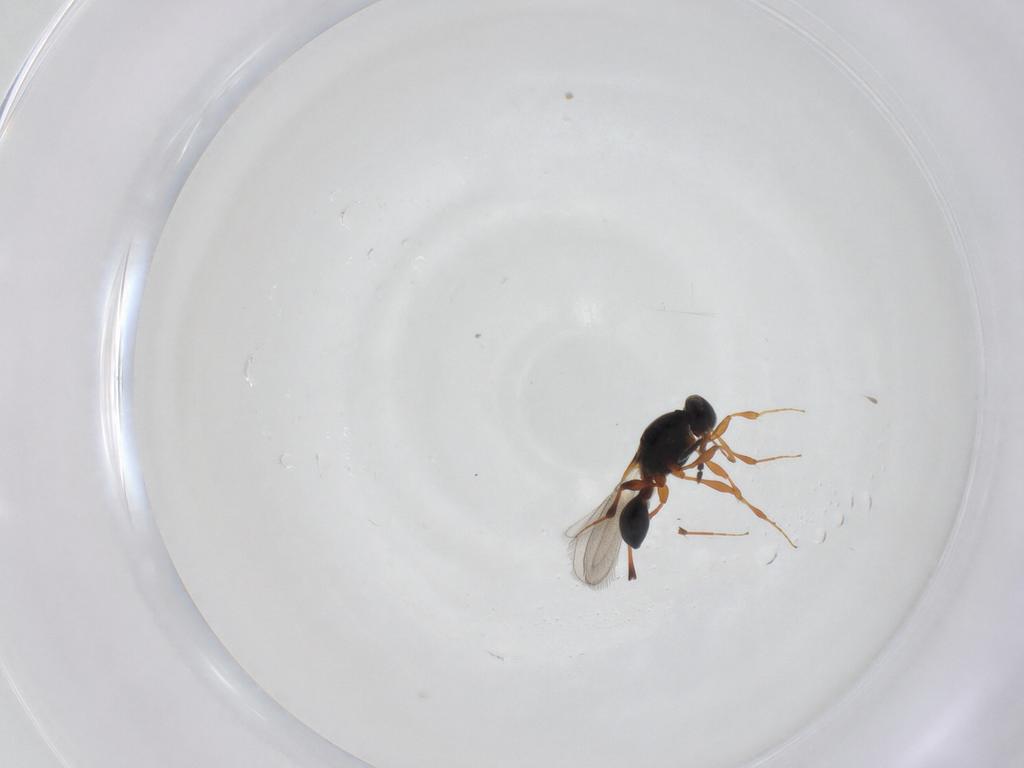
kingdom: Animalia
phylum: Arthropoda
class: Insecta
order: Hymenoptera
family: Platygastridae
